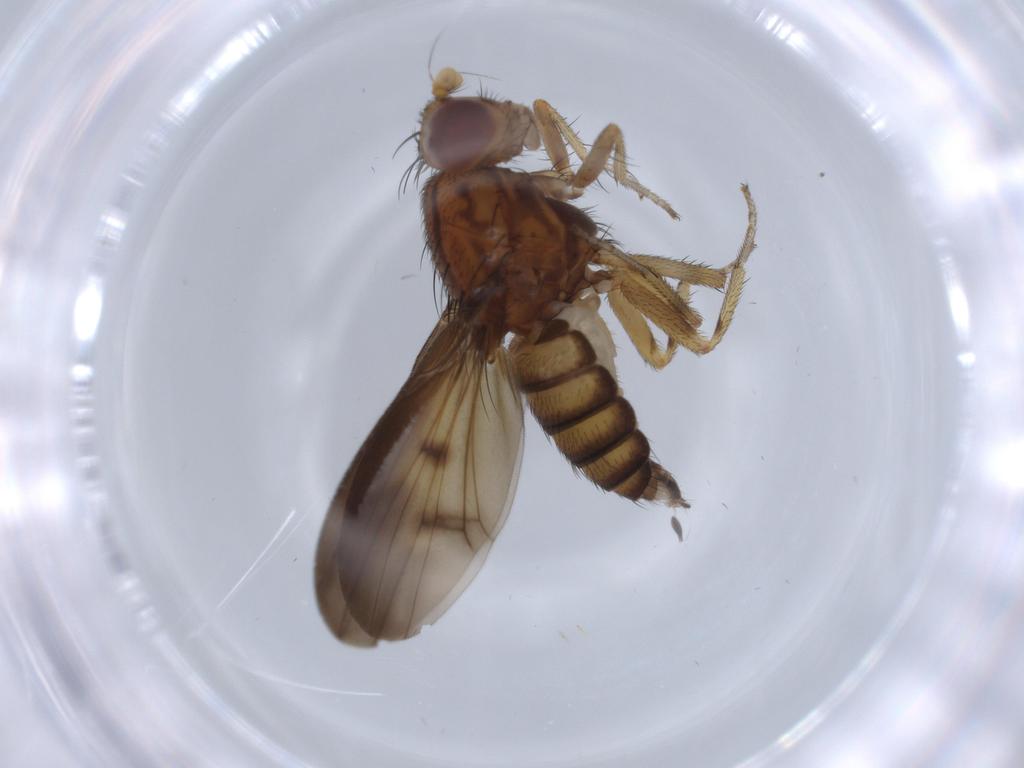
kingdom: Animalia
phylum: Arthropoda
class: Insecta
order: Diptera
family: Lauxaniidae
